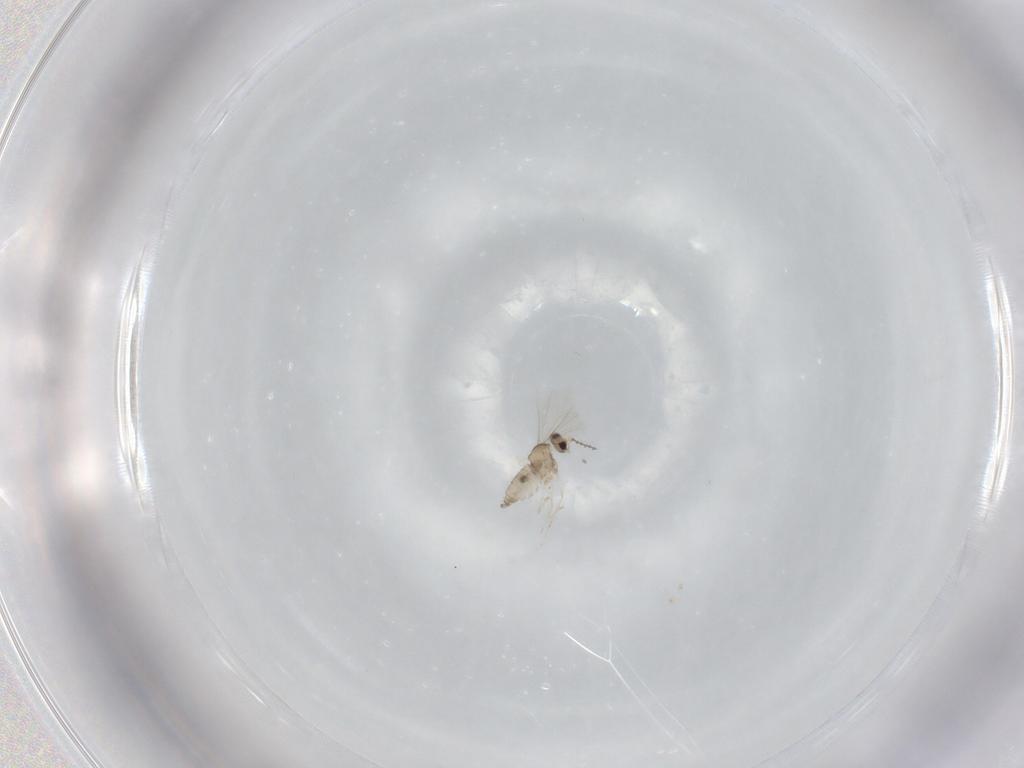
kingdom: Animalia
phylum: Arthropoda
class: Insecta
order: Diptera
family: Cecidomyiidae
